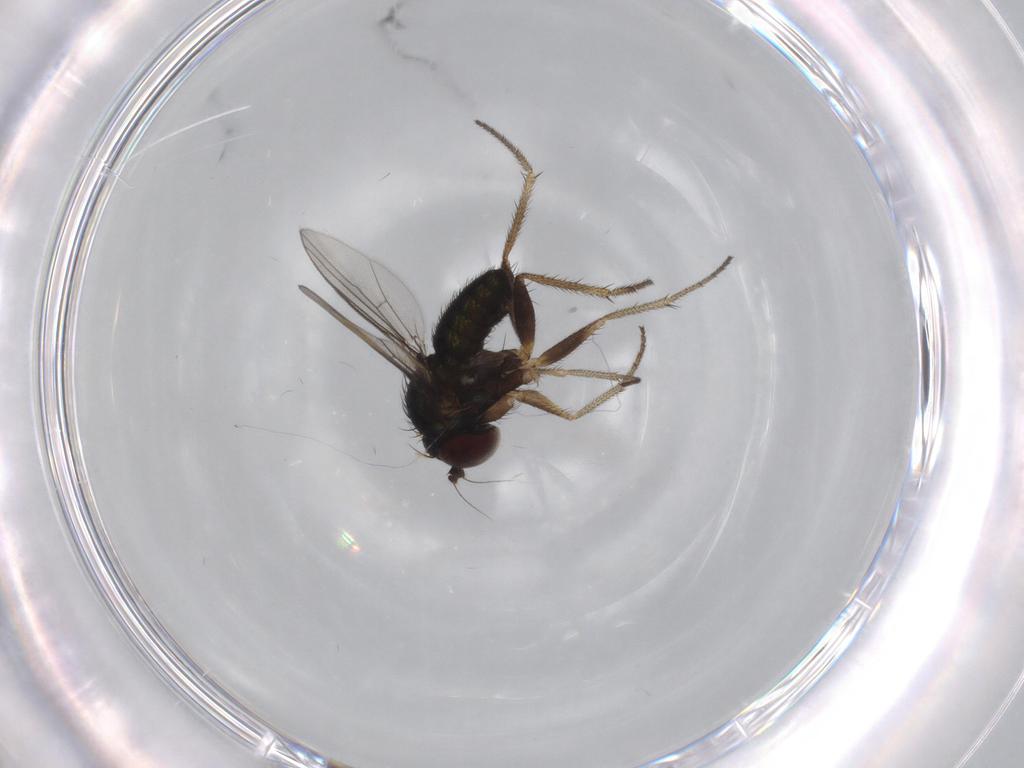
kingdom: Animalia
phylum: Arthropoda
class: Insecta
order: Diptera
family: Dolichopodidae
